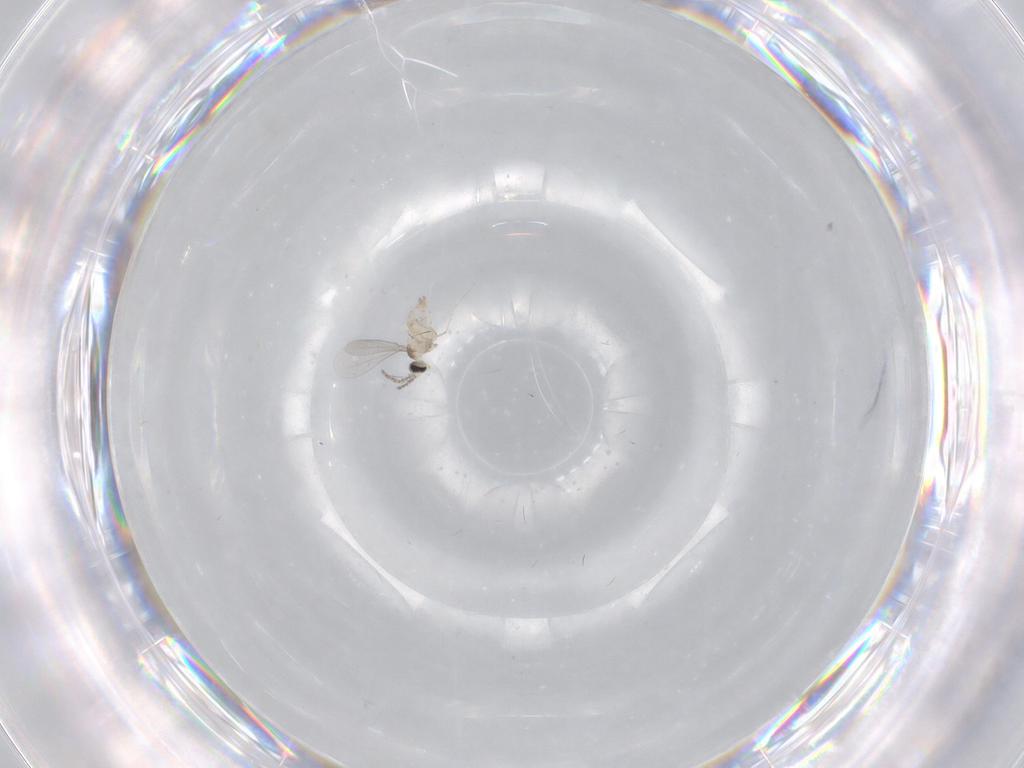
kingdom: Animalia
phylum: Arthropoda
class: Insecta
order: Diptera
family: Cecidomyiidae
